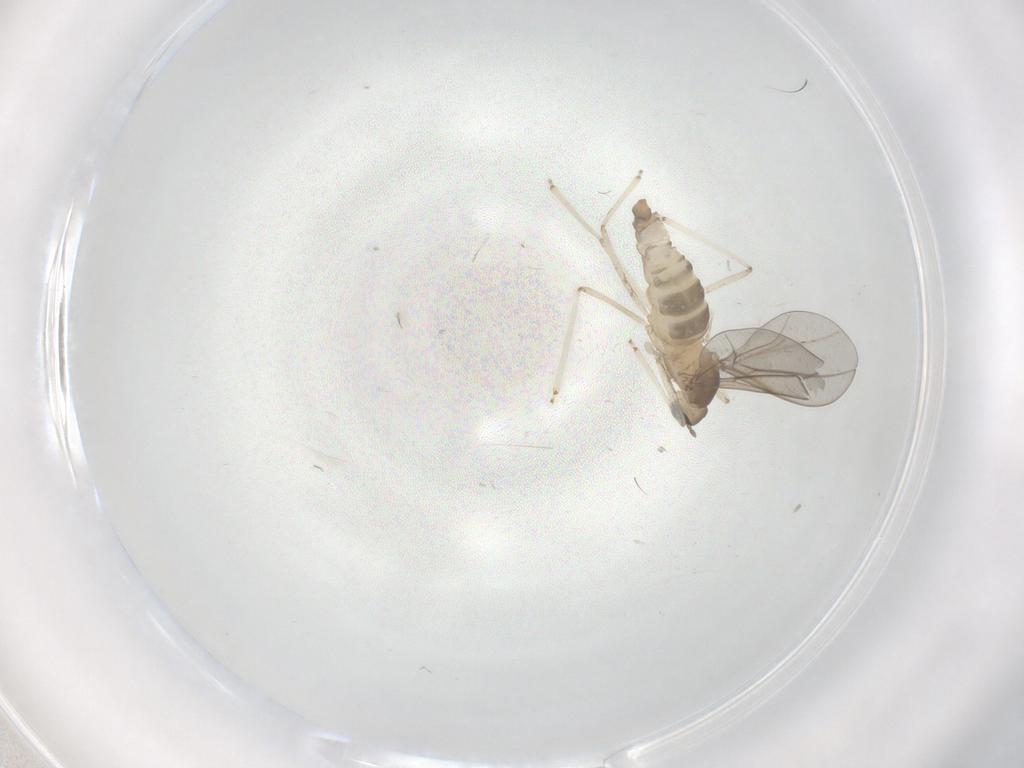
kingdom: Animalia
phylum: Arthropoda
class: Insecta
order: Diptera
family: Cecidomyiidae
